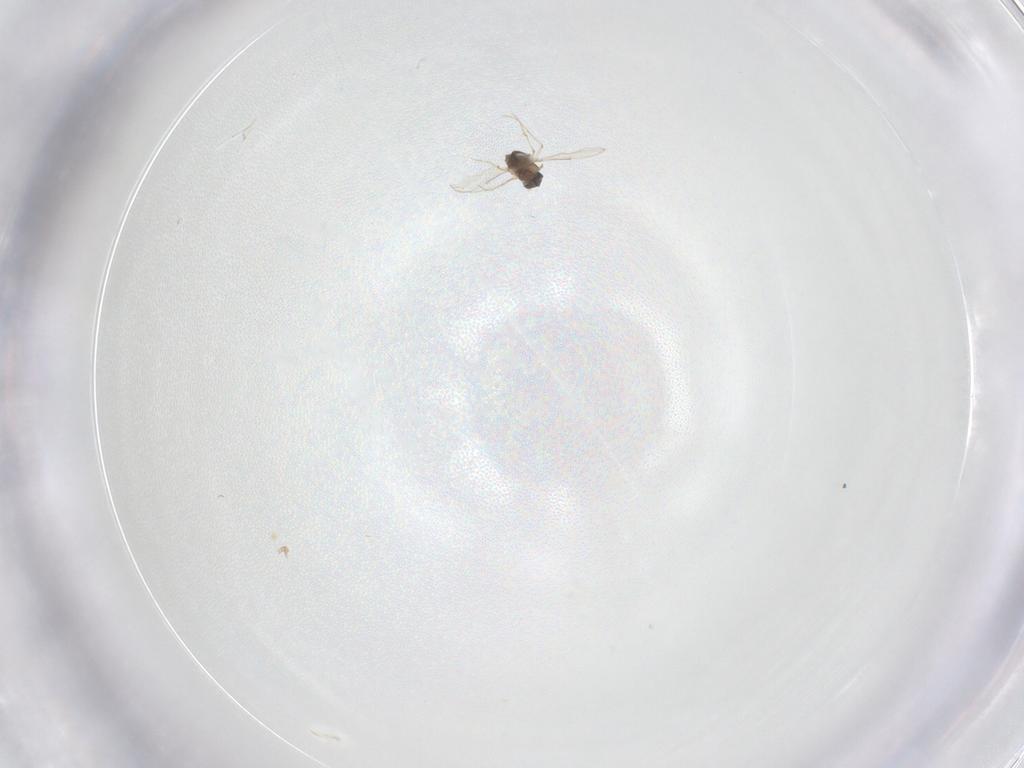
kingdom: Animalia
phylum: Arthropoda
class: Insecta
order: Diptera
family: Chironomidae
